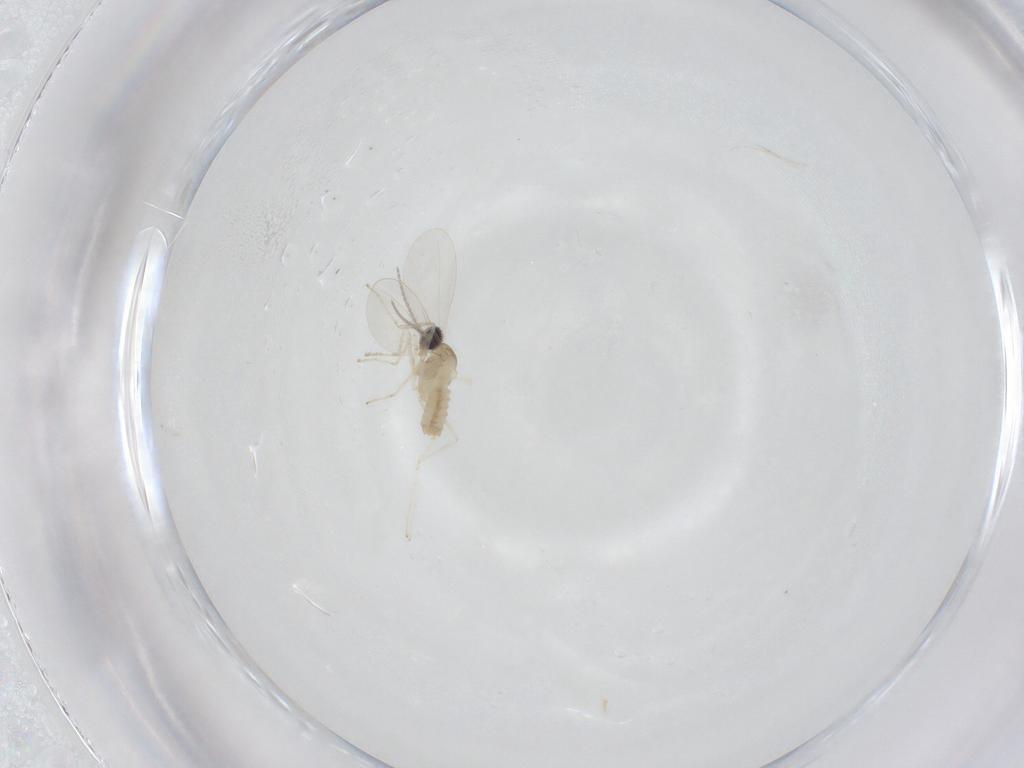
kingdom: Animalia
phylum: Arthropoda
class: Insecta
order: Diptera
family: Cecidomyiidae
